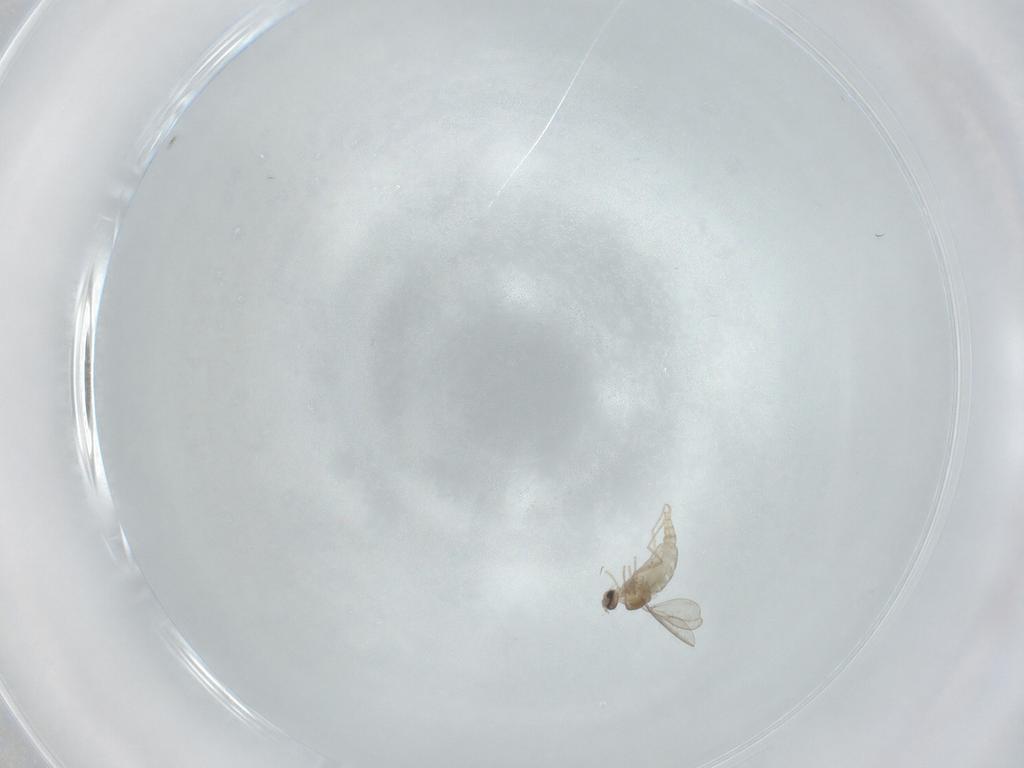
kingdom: Animalia
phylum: Arthropoda
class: Insecta
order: Diptera
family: Cecidomyiidae
